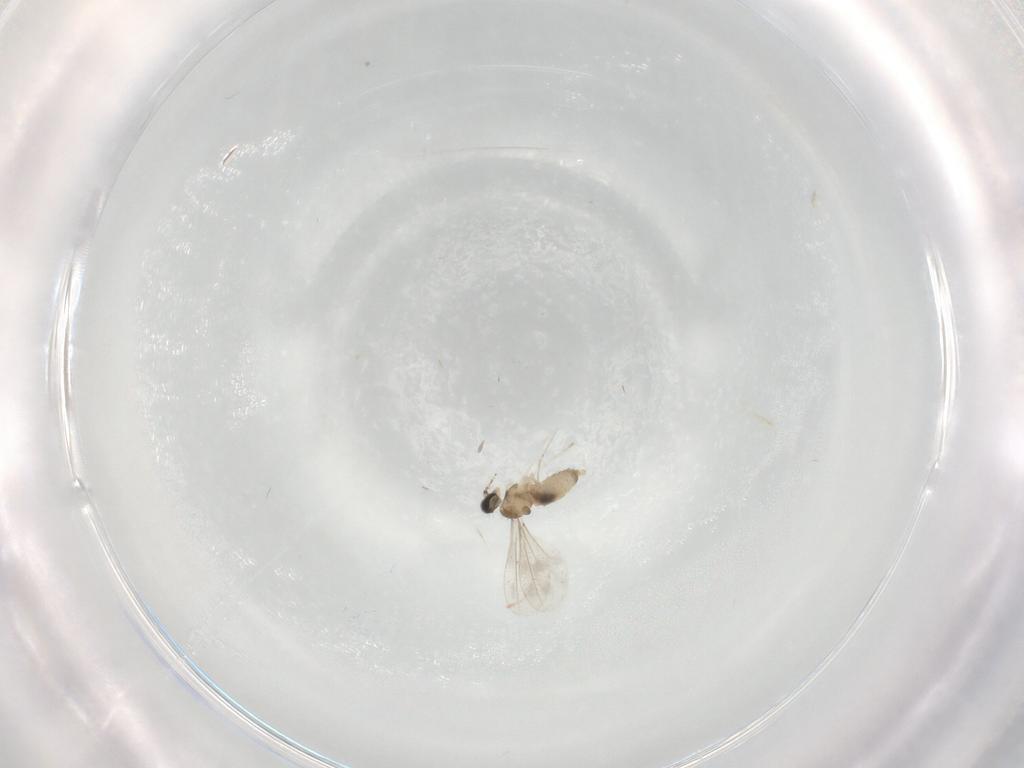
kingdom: Animalia
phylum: Arthropoda
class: Insecta
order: Diptera
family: Cecidomyiidae
